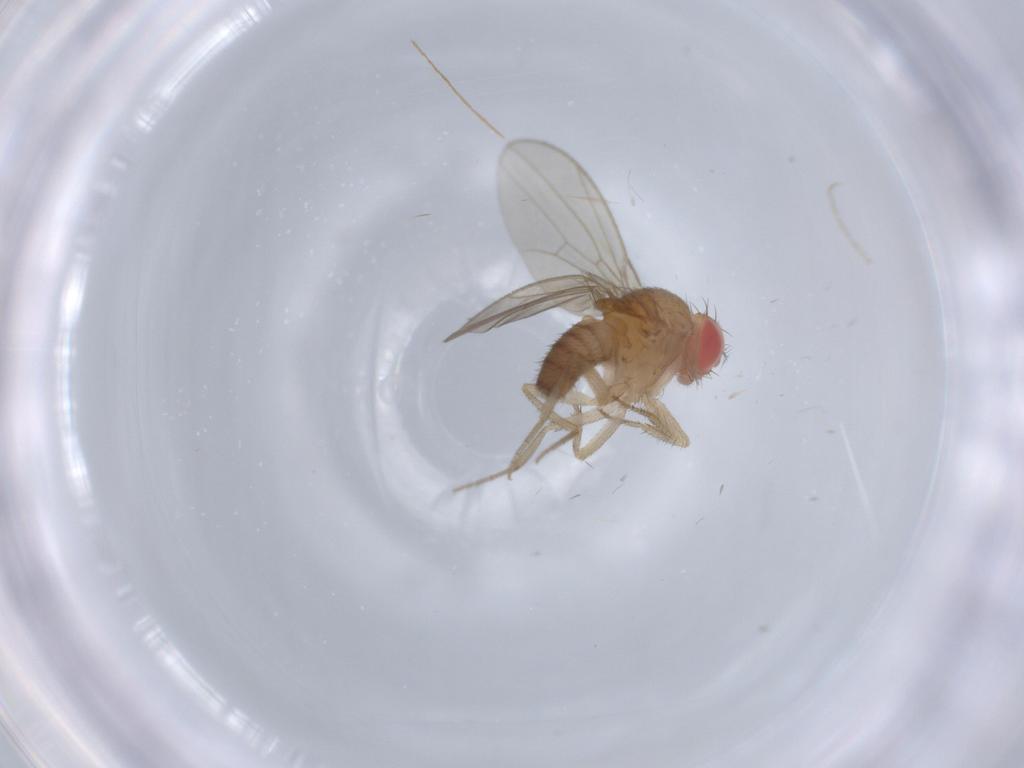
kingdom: Animalia
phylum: Arthropoda
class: Insecta
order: Diptera
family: Drosophilidae
